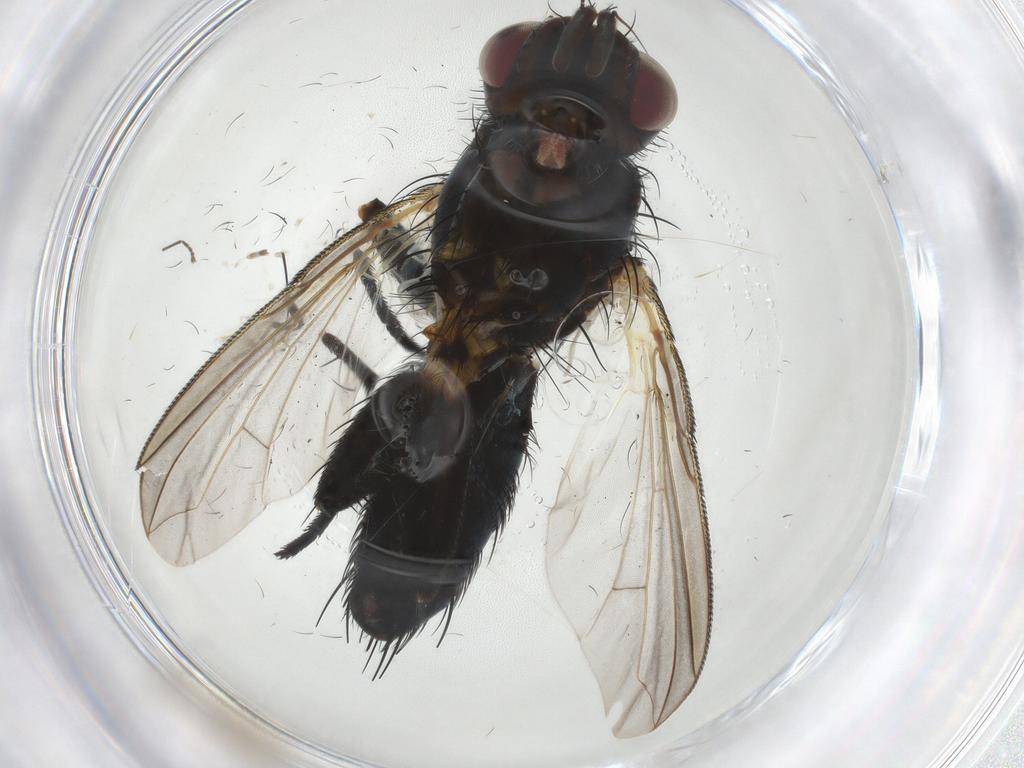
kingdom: Animalia
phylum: Arthropoda
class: Insecta
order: Diptera
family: Tachinidae
